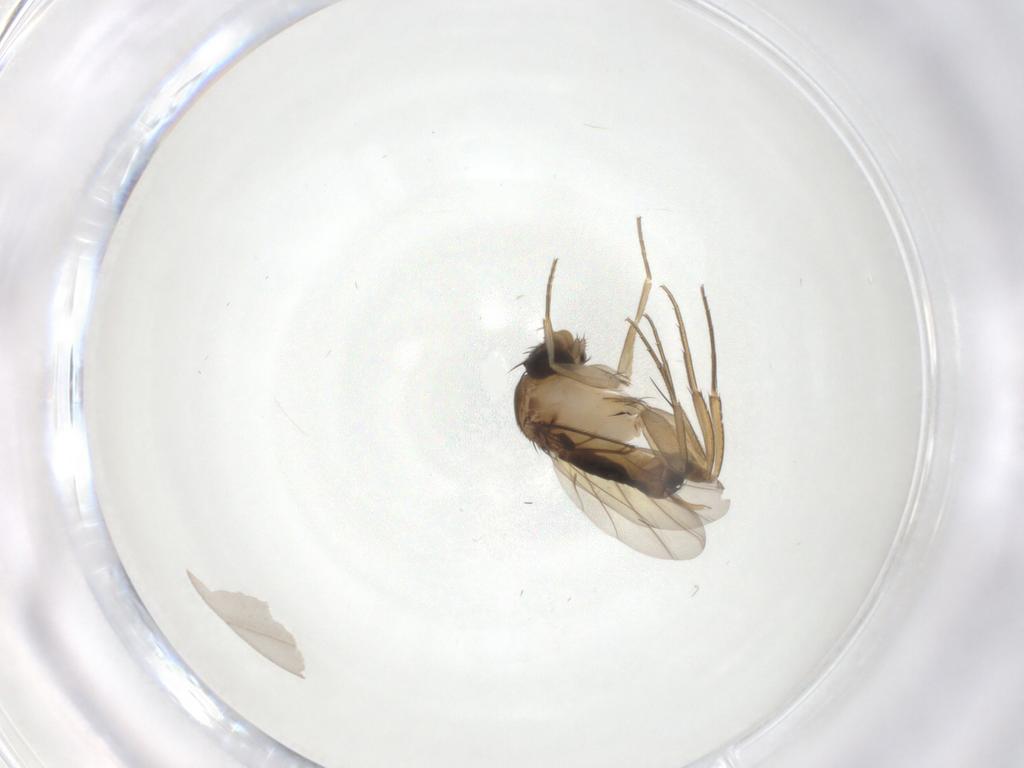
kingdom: Animalia
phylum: Arthropoda
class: Insecta
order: Diptera
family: Phoridae
